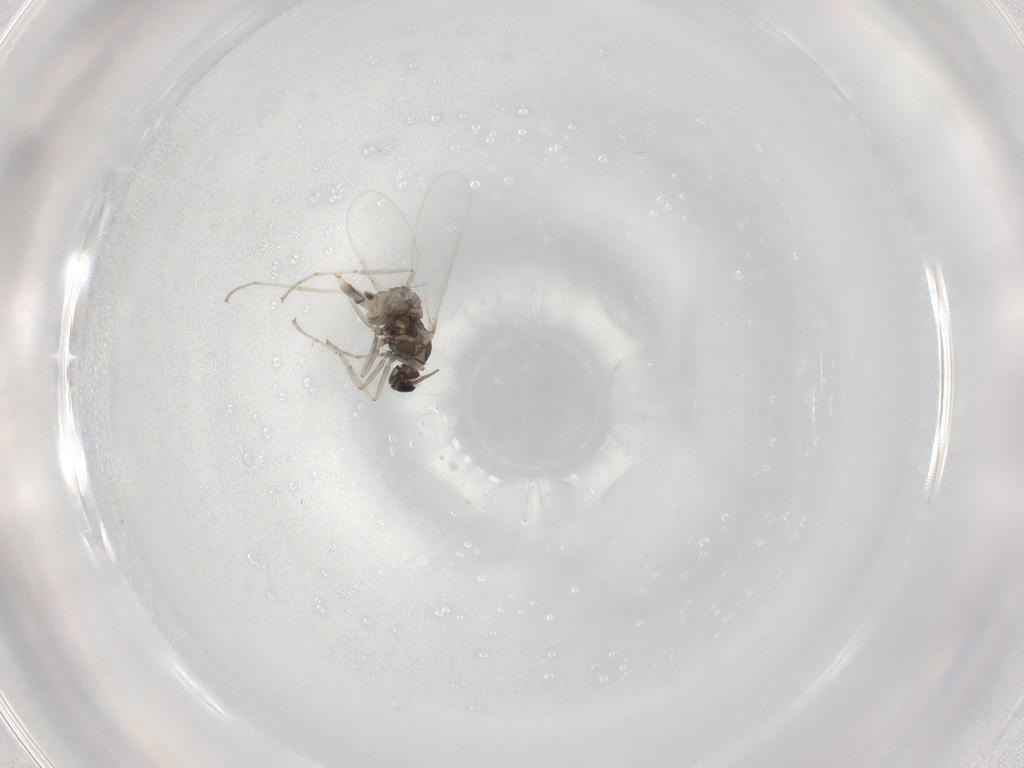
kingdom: Animalia
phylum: Arthropoda
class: Insecta
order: Diptera
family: Cecidomyiidae
